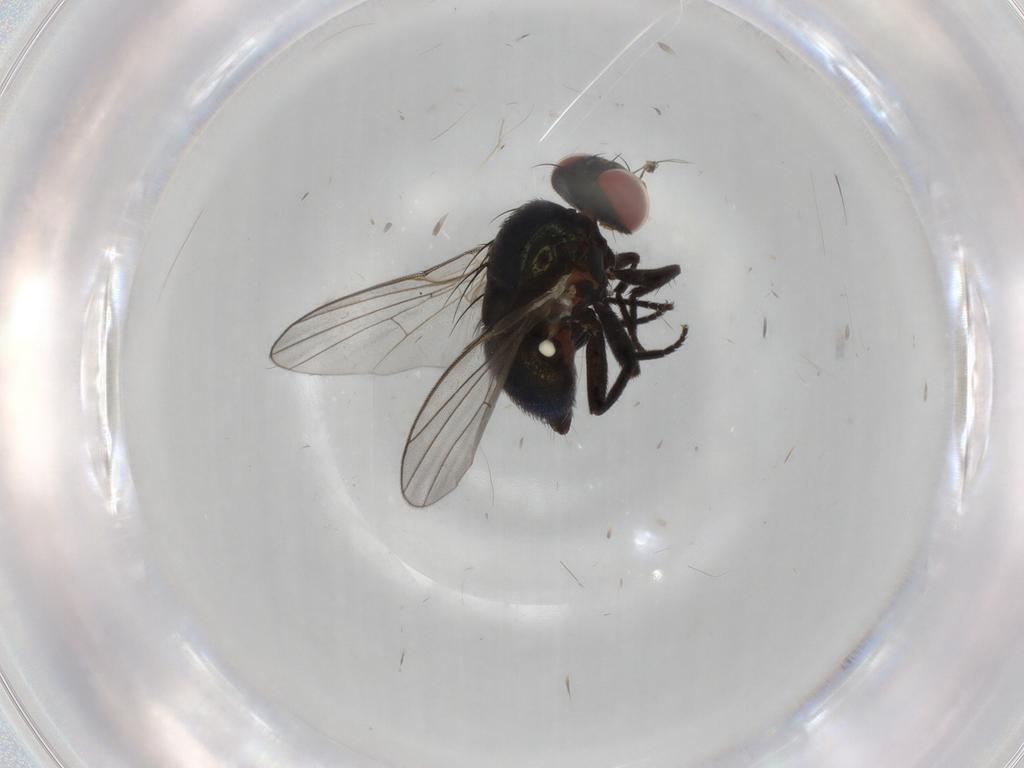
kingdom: Animalia
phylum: Arthropoda
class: Insecta
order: Diptera
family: Agromyzidae
